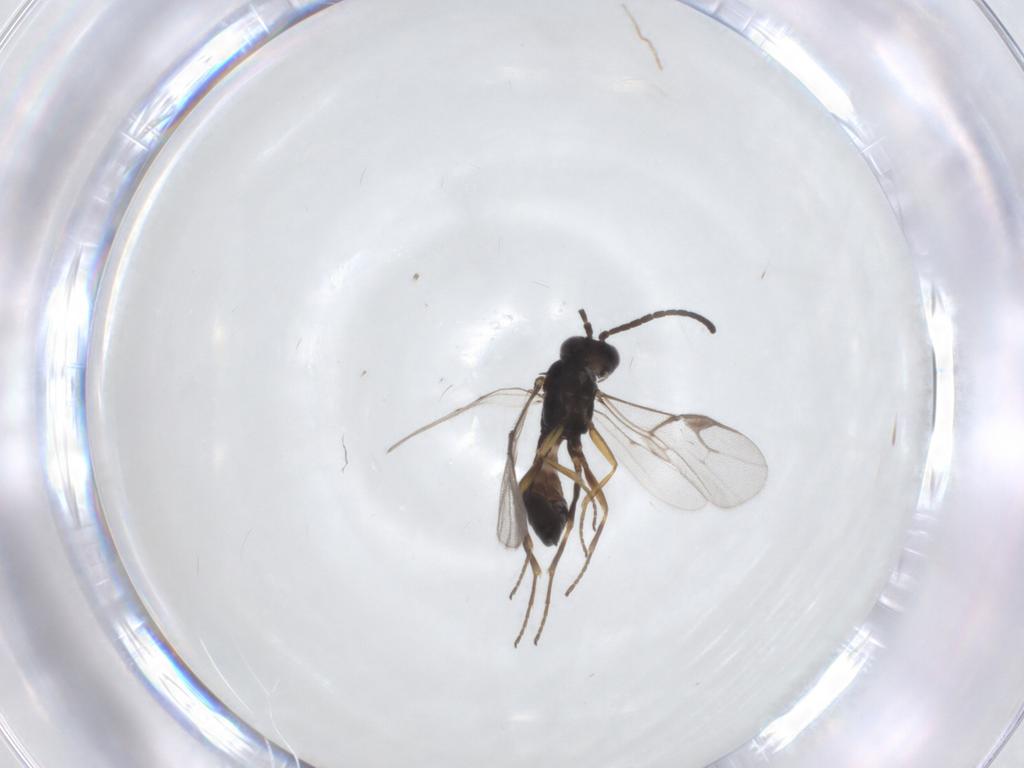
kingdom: Animalia
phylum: Arthropoda
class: Insecta
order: Hymenoptera
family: Braconidae
